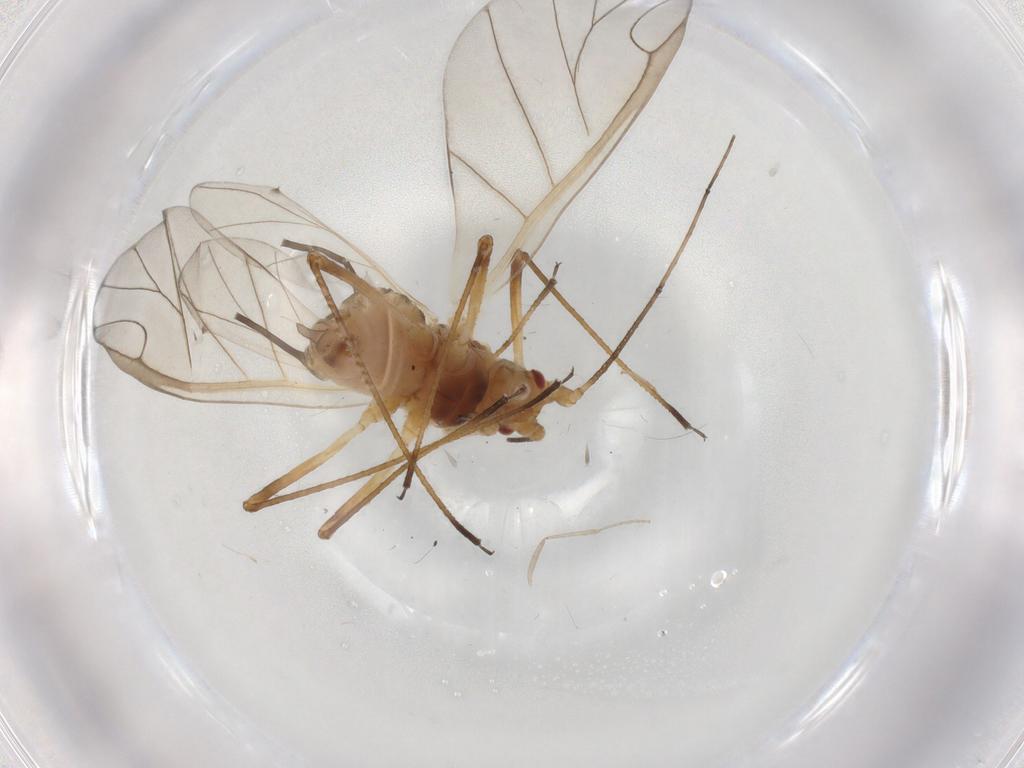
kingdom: Animalia
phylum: Arthropoda
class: Insecta
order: Hemiptera
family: Aphididae
